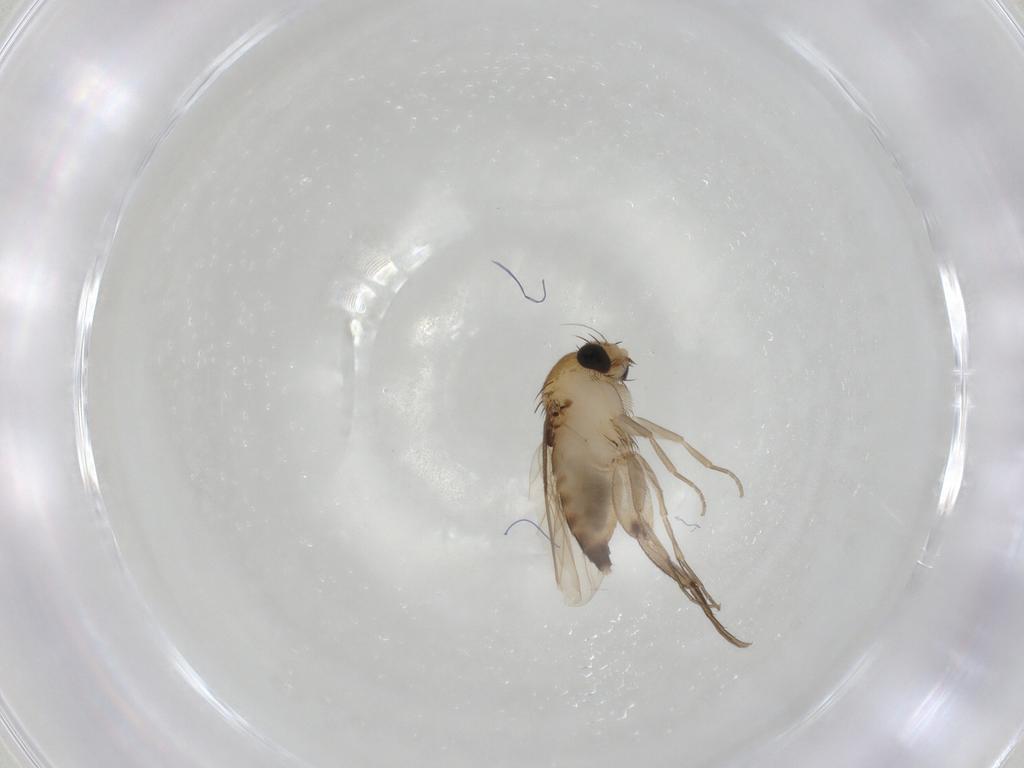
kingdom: Animalia
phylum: Arthropoda
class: Insecta
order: Diptera
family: Phoridae
